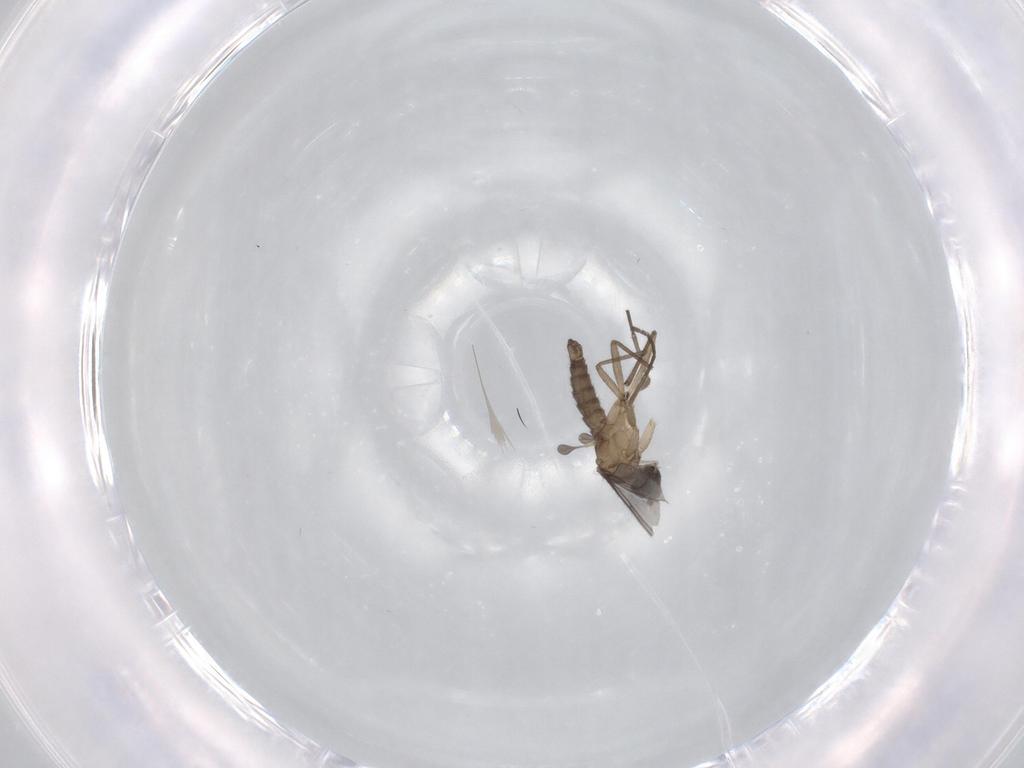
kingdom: Animalia
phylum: Arthropoda
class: Insecta
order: Diptera
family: Sciaridae
